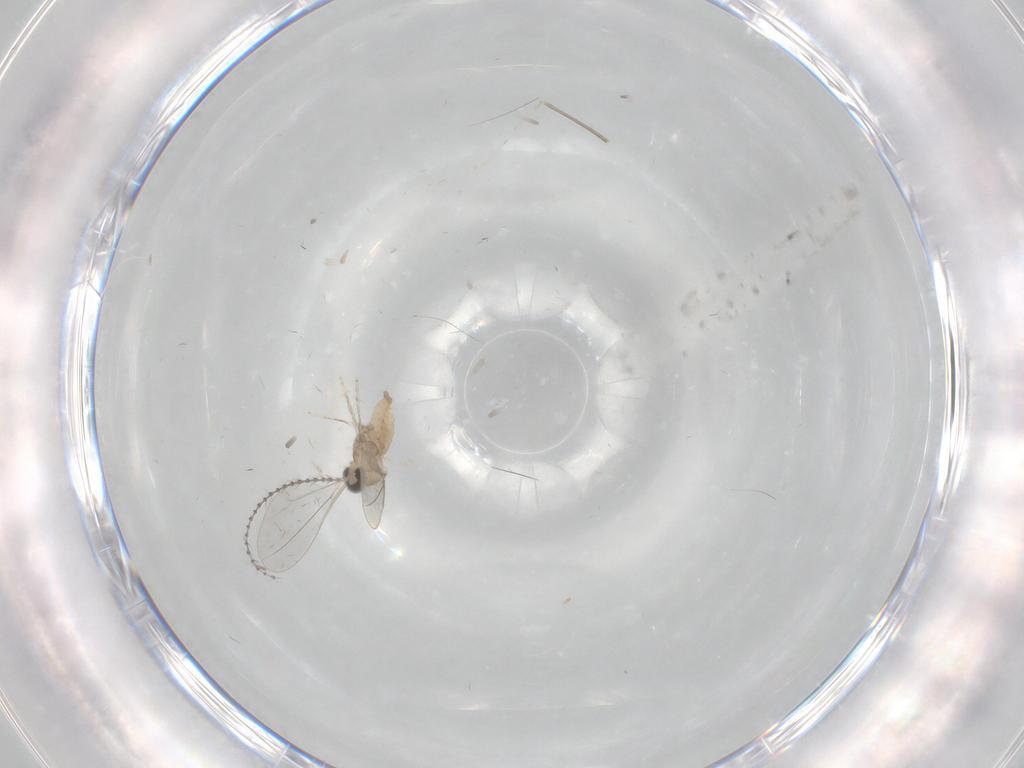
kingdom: Animalia
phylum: Arthropoda
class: Insecta
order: Diptera
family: Cecidomyiidae
